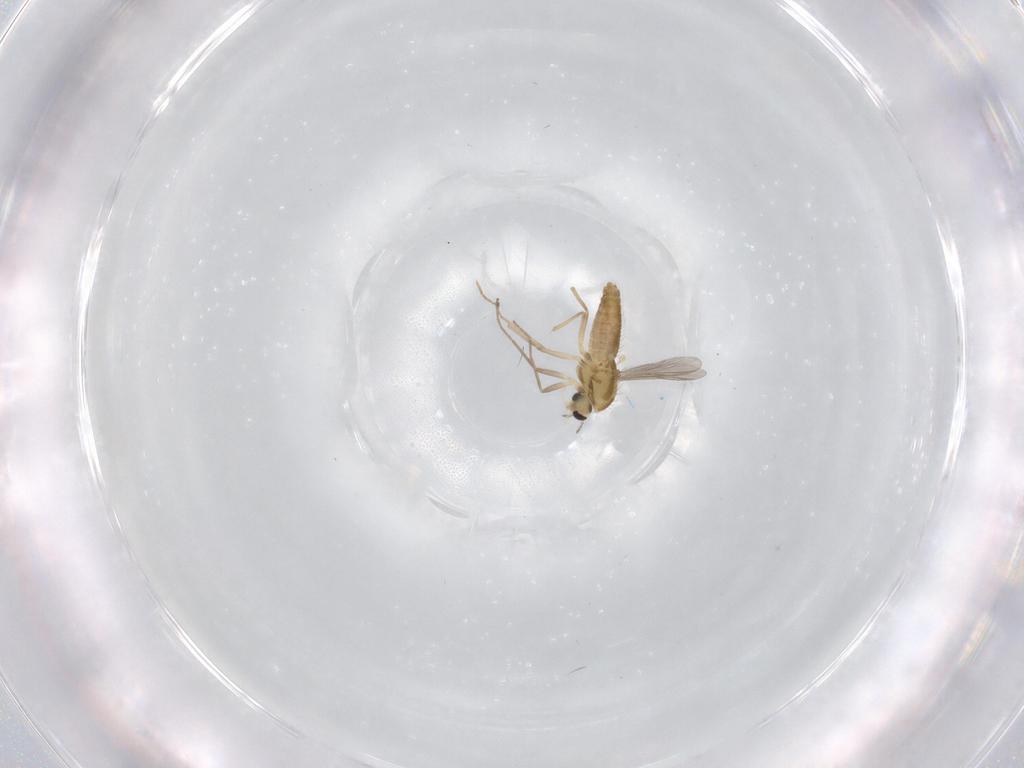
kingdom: Animalia
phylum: Arthropoda
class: Insecta
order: Diptera
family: Chironomidae
